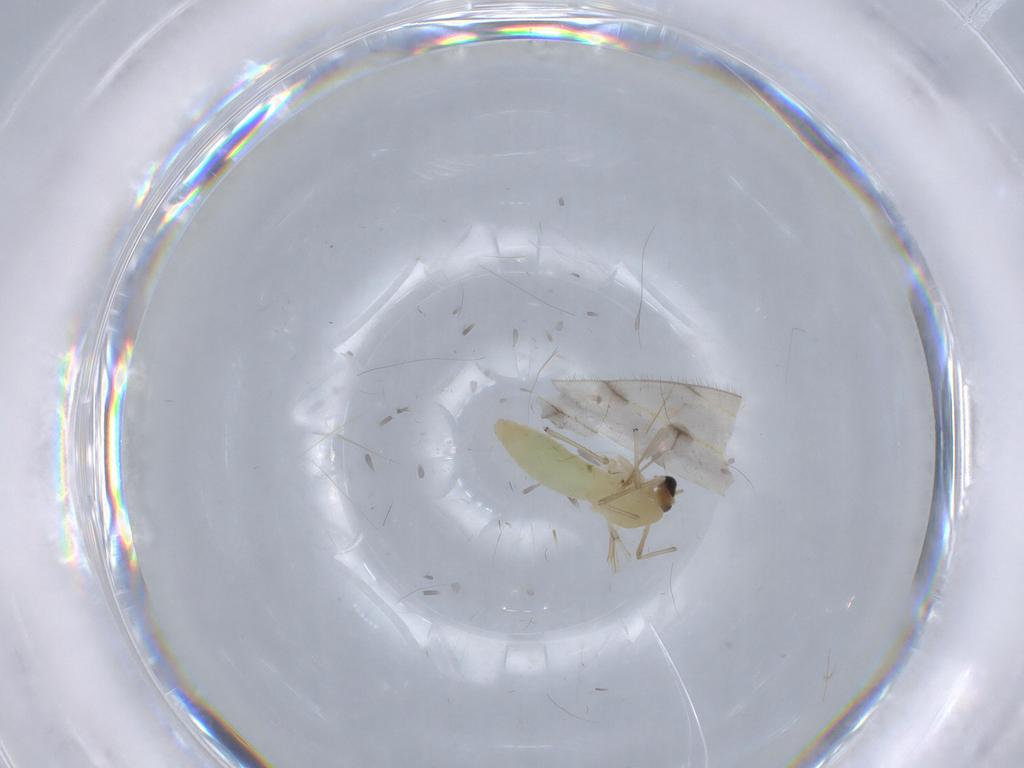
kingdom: Animalia
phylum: Arthropoda
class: Insecta
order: Diptera
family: Chironomidae
